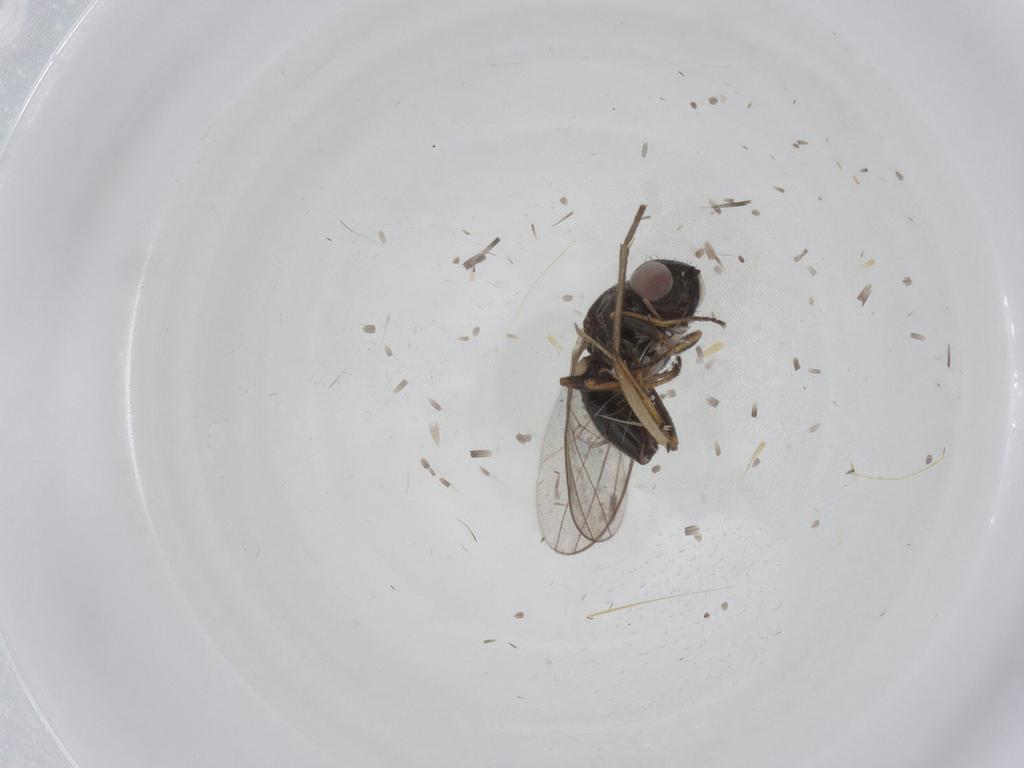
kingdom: Animalia
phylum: Arthropoda
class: Insecta
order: Diptera
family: Chloropidae
